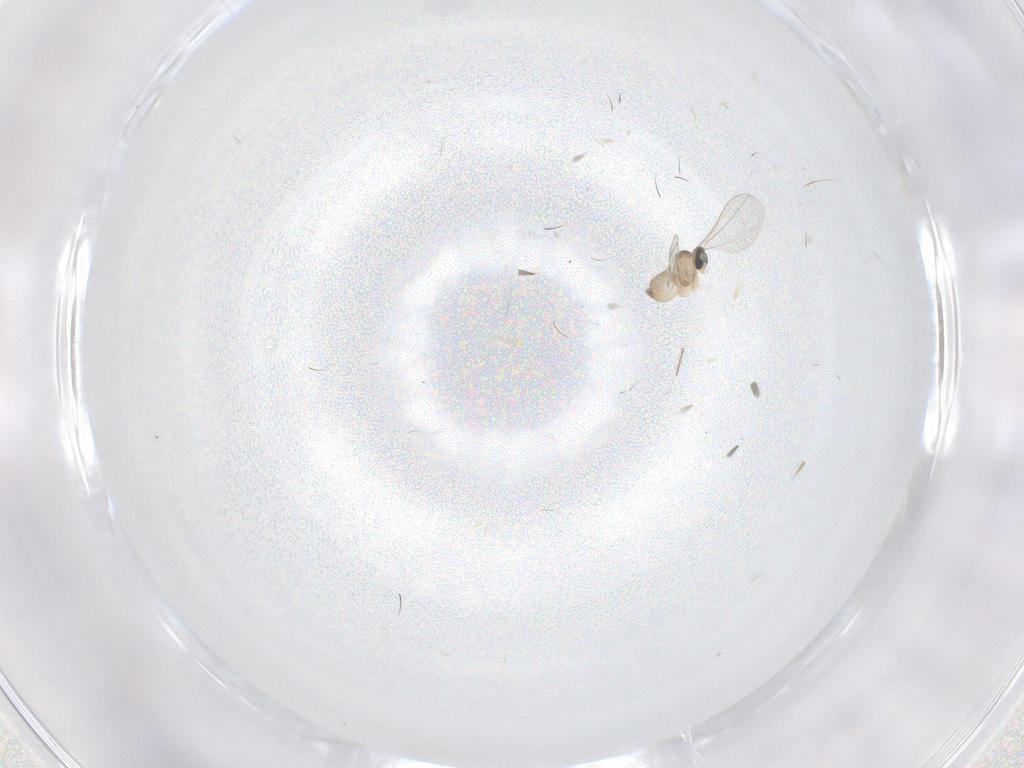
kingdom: Animalia
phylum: Arthropoda
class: Insecta
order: Diptera
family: Cecidomyiidae
